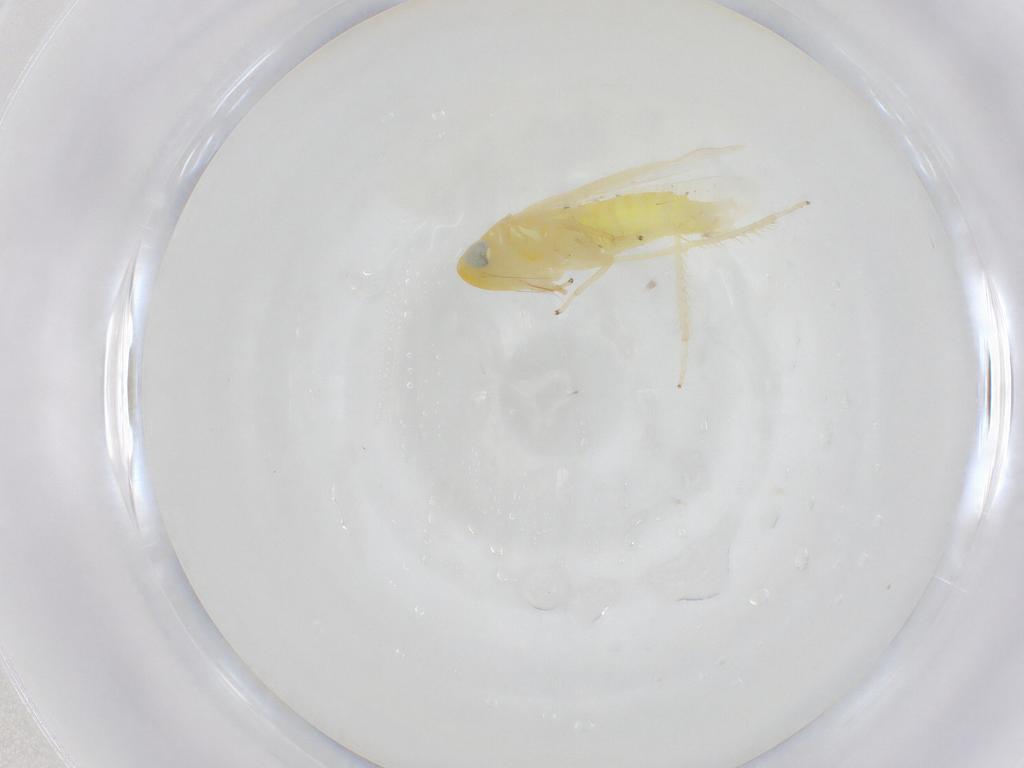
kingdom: Animalia
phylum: Arthropoda
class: Insecta
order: Hemiptera
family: Cicadellidae
